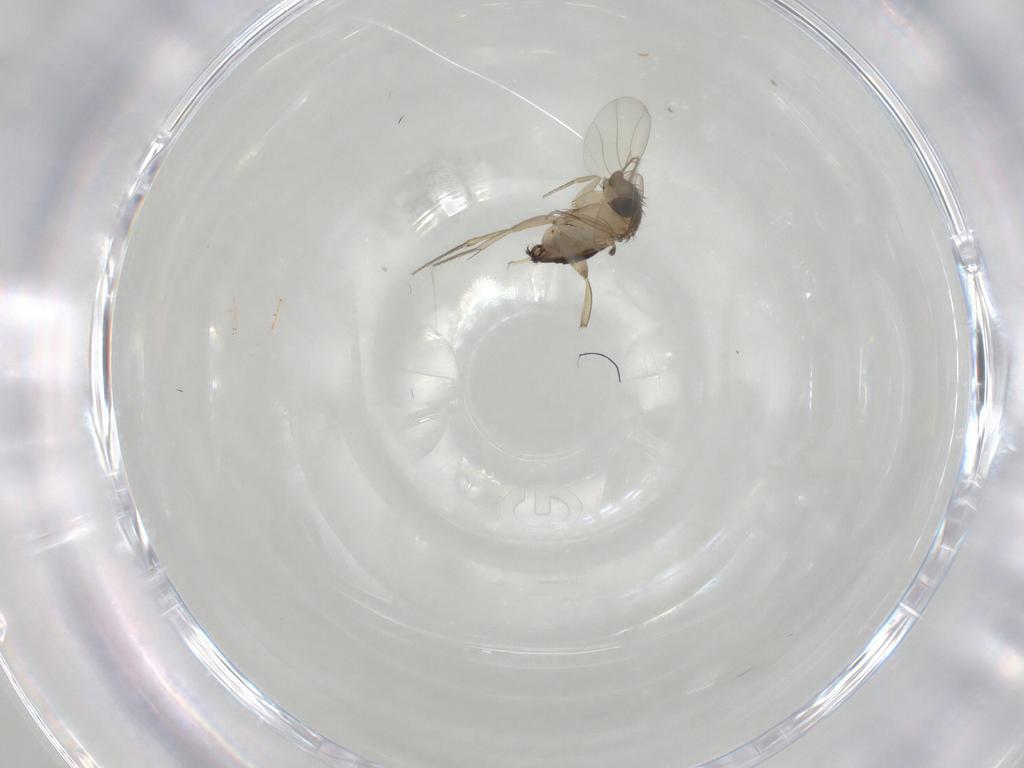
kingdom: Animalia
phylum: Arthropoda
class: Insecta
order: Diptera
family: Phoridae
